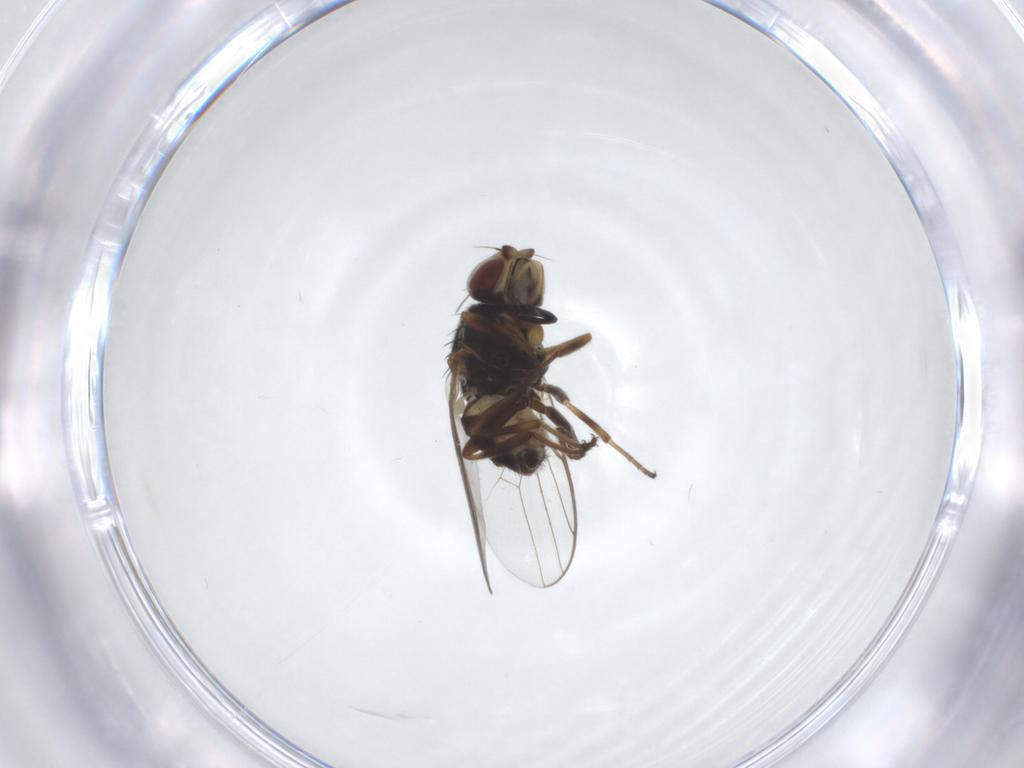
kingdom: Animalia
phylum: Arthropoda
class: Insecta
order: Diptera
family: Chloropidae
